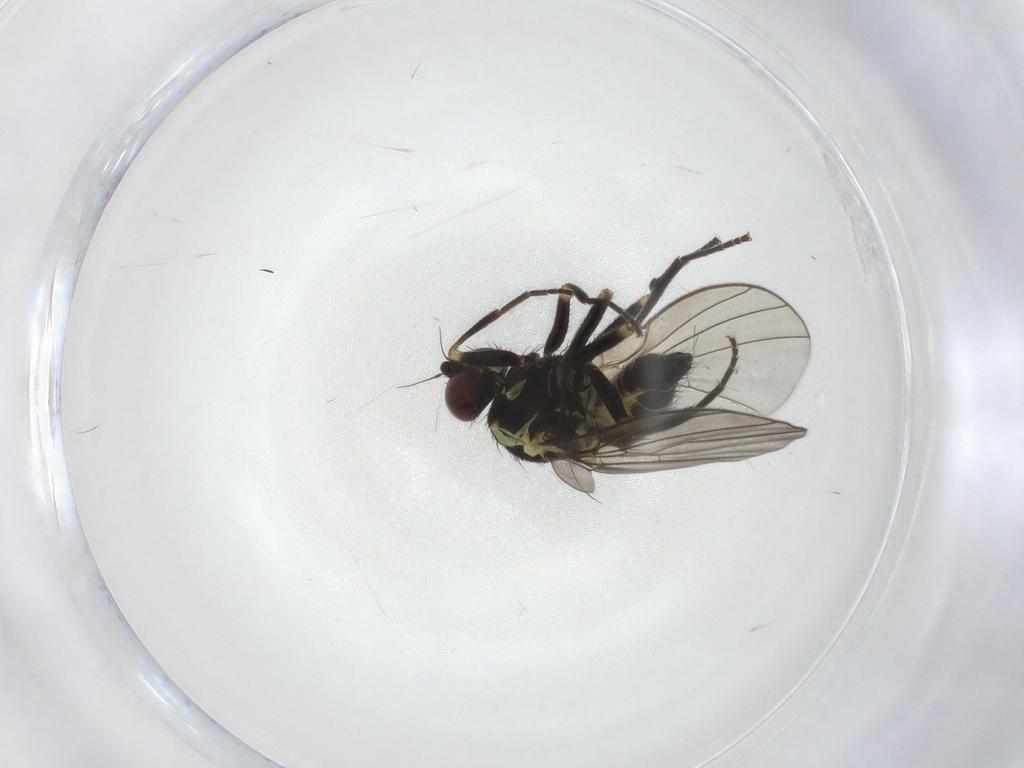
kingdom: Animalia
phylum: Arthropoda
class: Insecta
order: Diptera
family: Agromyzidae
